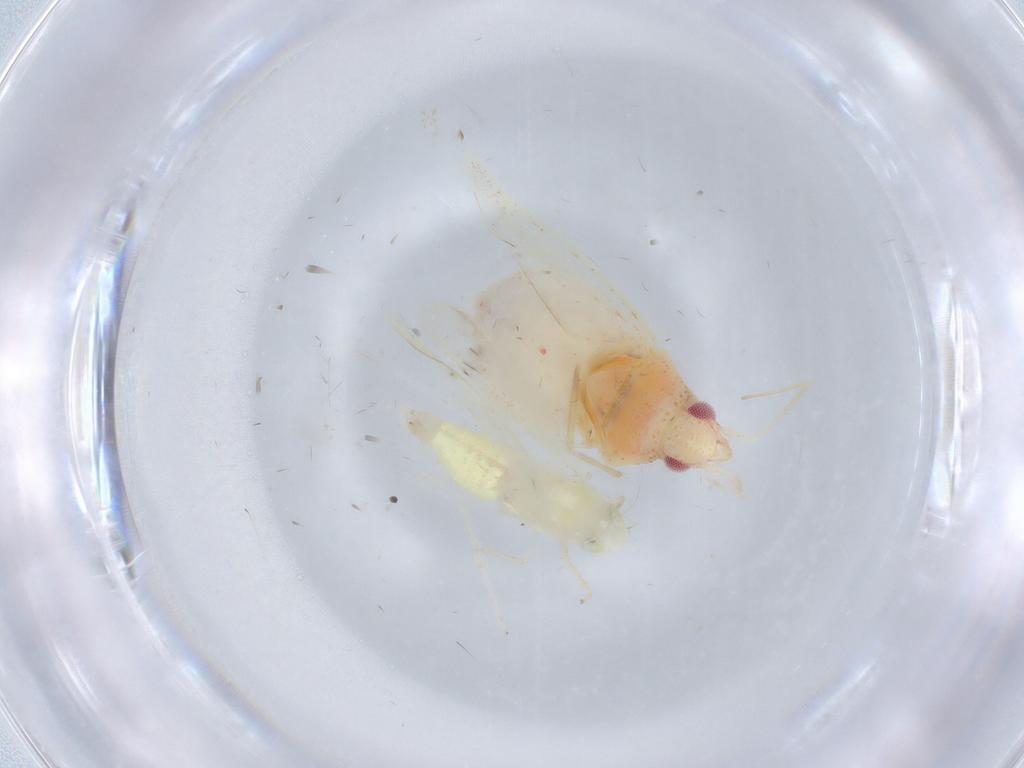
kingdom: Animalia
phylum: Arthropoda
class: Insecta
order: Hemiptera
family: Miridae
